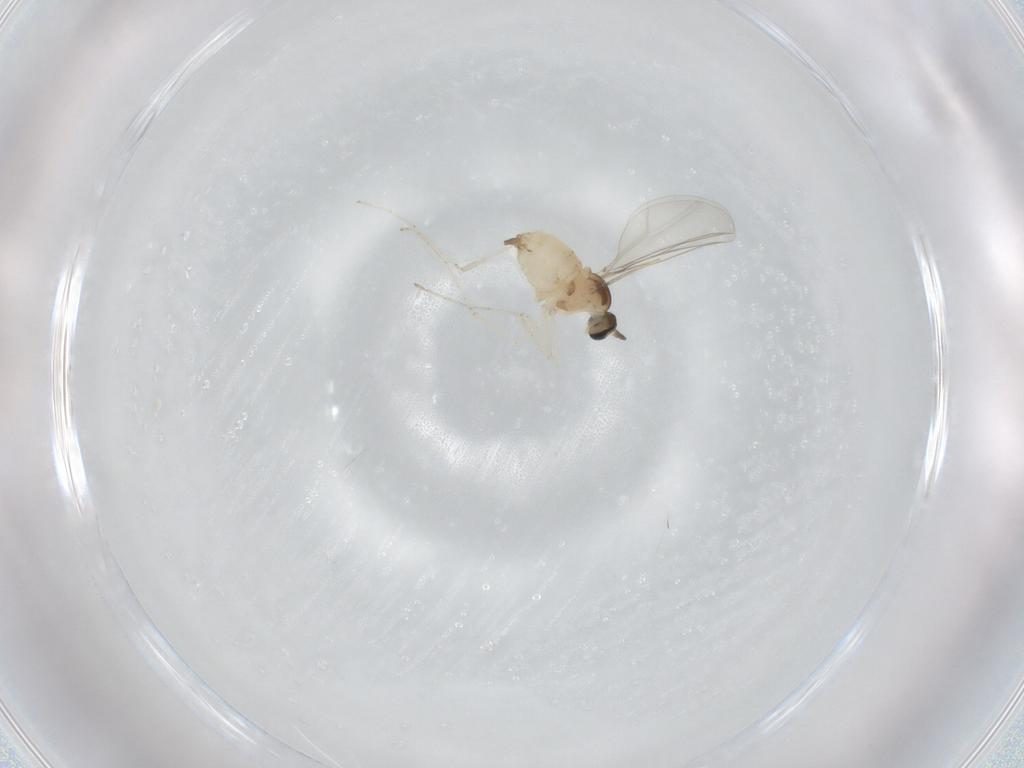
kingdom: Animalia
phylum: Arthropoda
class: Insecta
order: Diptera
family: Cecidomyiidae
